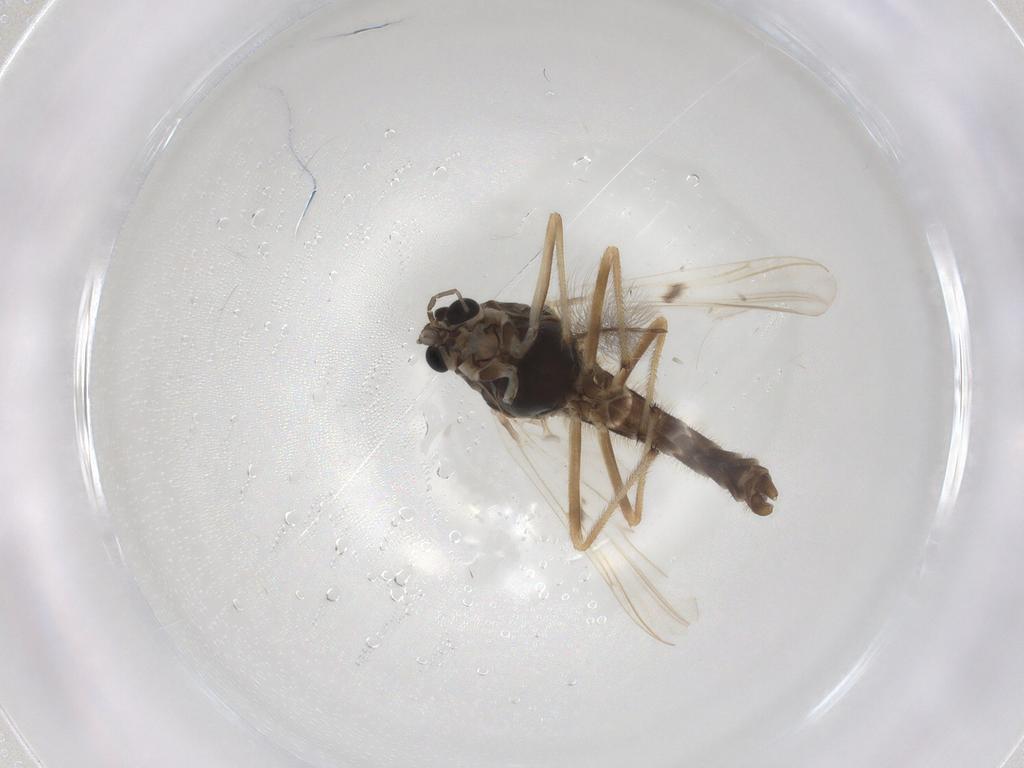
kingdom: Animalia
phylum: Arthropoda
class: Insecta
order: Diptera
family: Chironomidae
